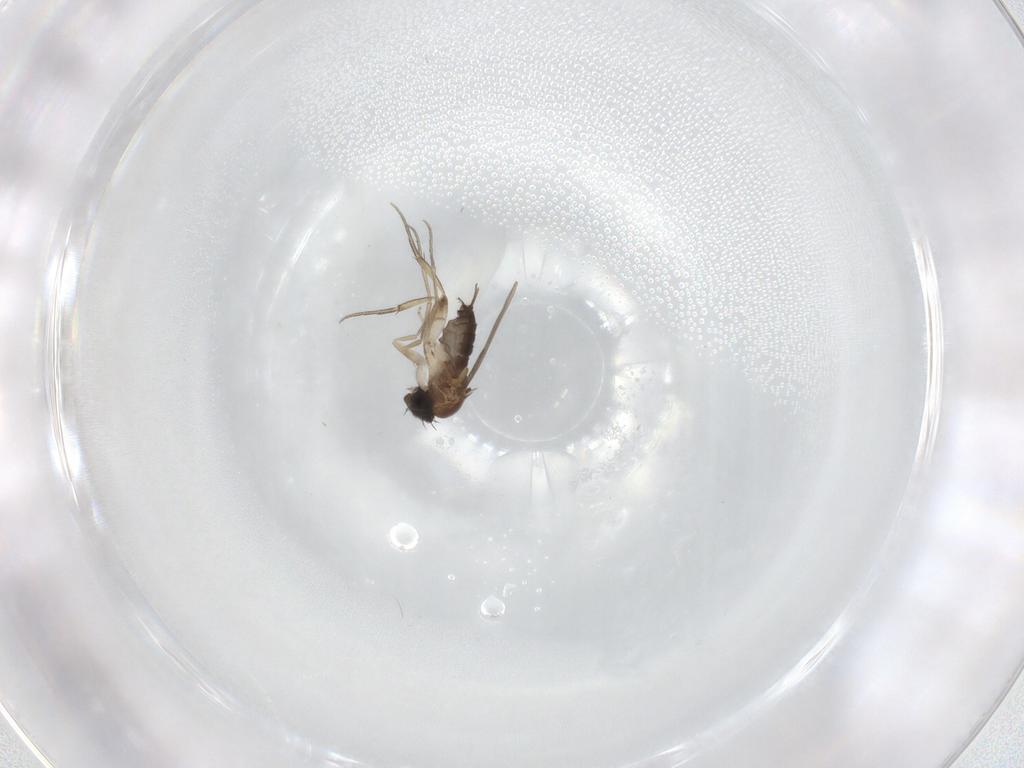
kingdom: Animalia
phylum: Arthropoda
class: Insecta
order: Diptera
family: Phoridae
